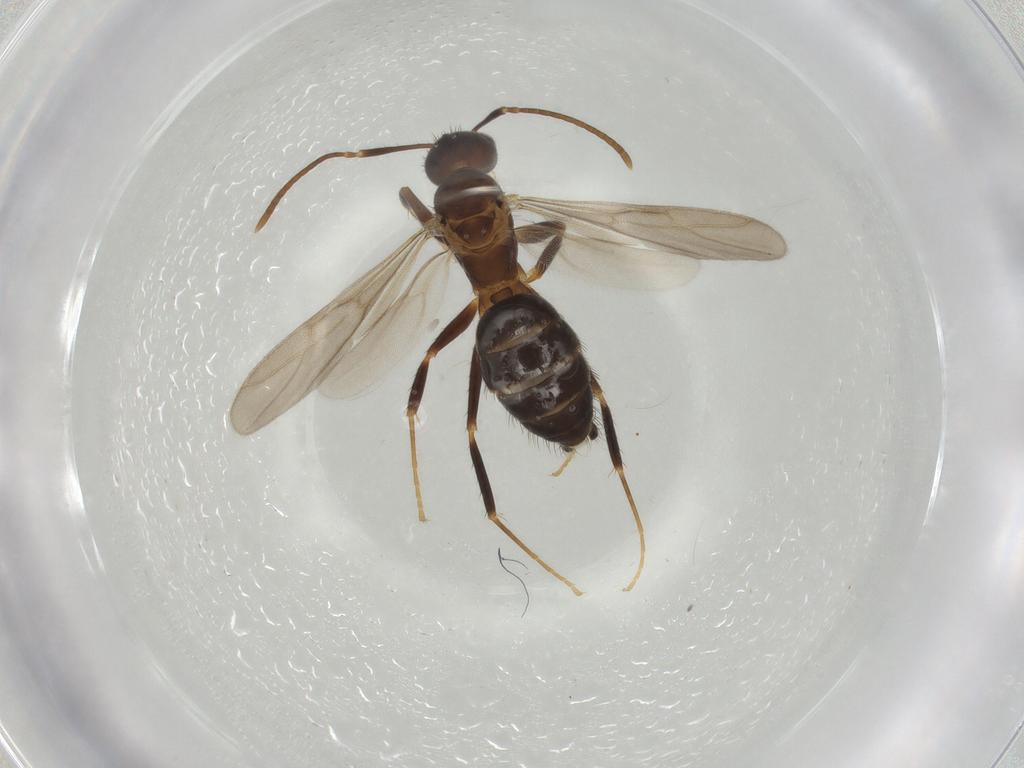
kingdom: Animalia
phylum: Arthropoda
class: Insecta
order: Hymenoptera
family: Formicidae
